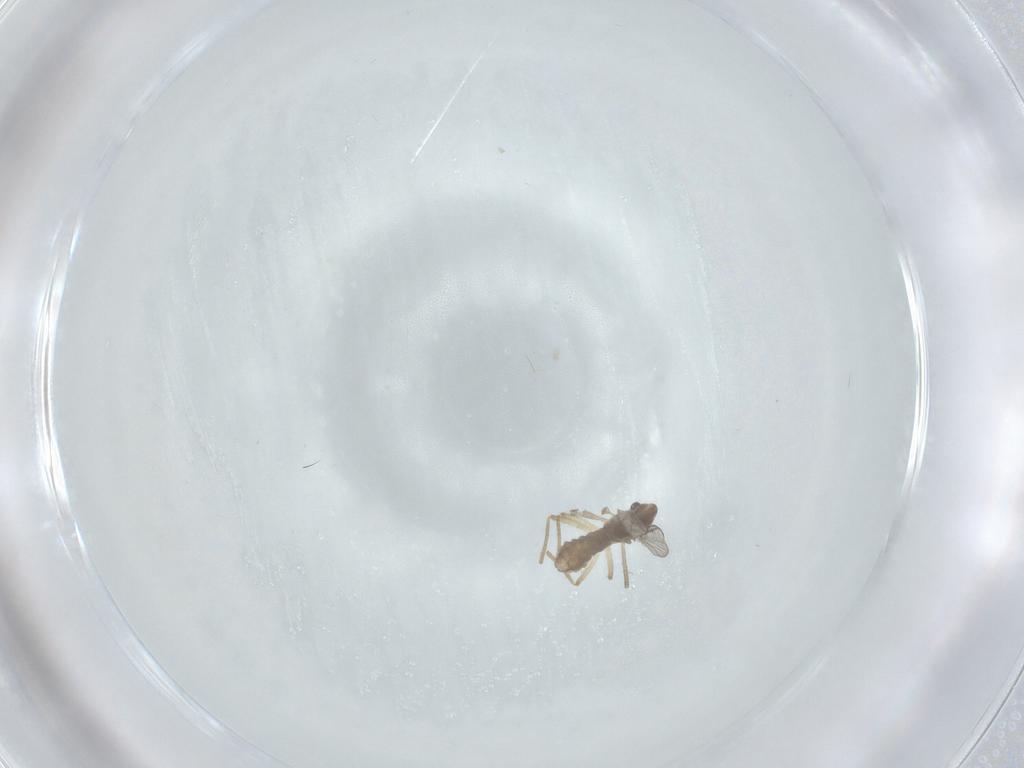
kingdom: Animalia
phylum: Arthropoda
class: Insecta
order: Diptera
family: Chironomidae
